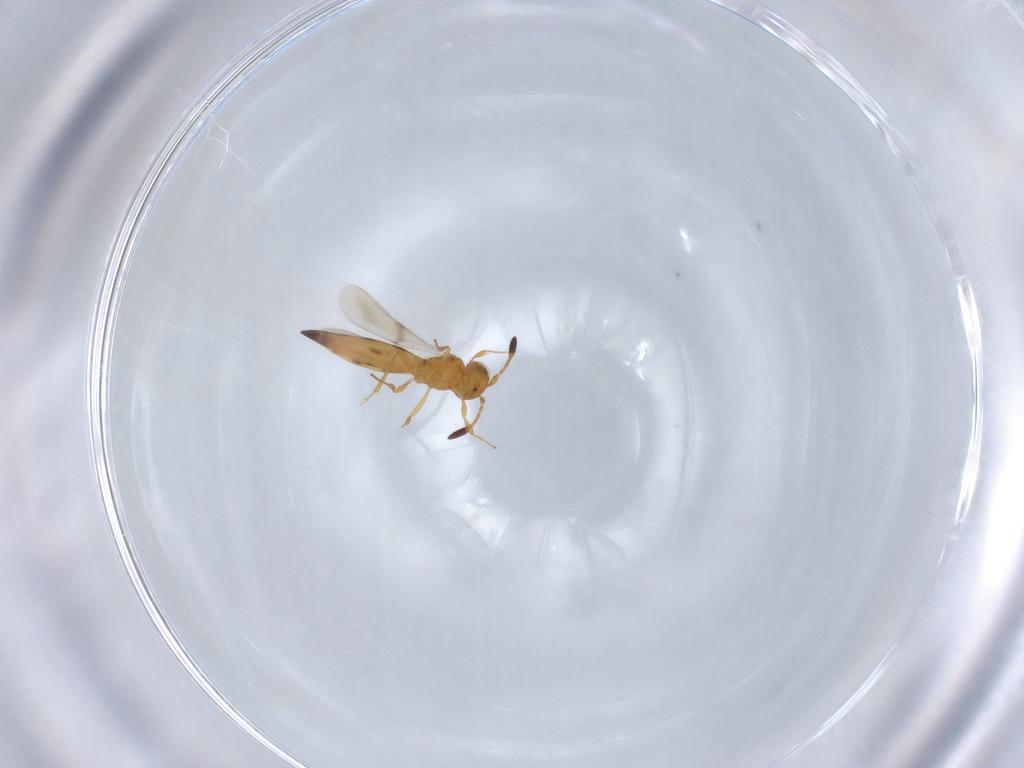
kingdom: Animalia
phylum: Arthropoda
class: Insecta
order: Hymenoptera
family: Scelionidae
